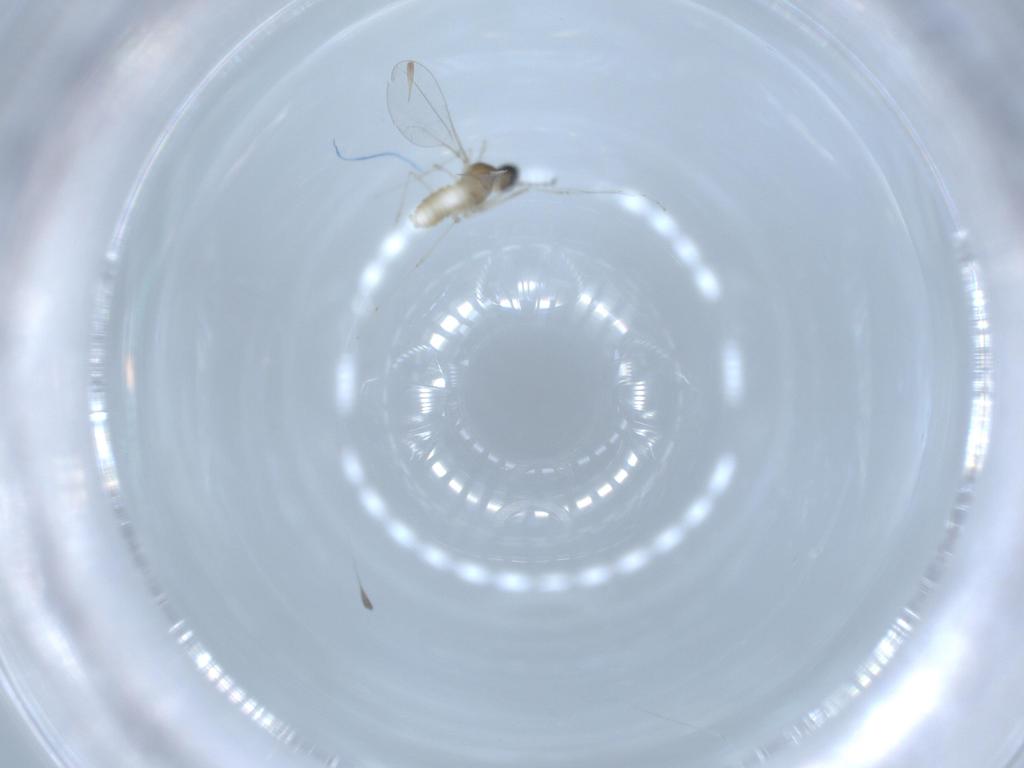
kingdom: Animalia
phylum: Arthropoda
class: Insecta
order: Diptera
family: Cecidomyiidae
